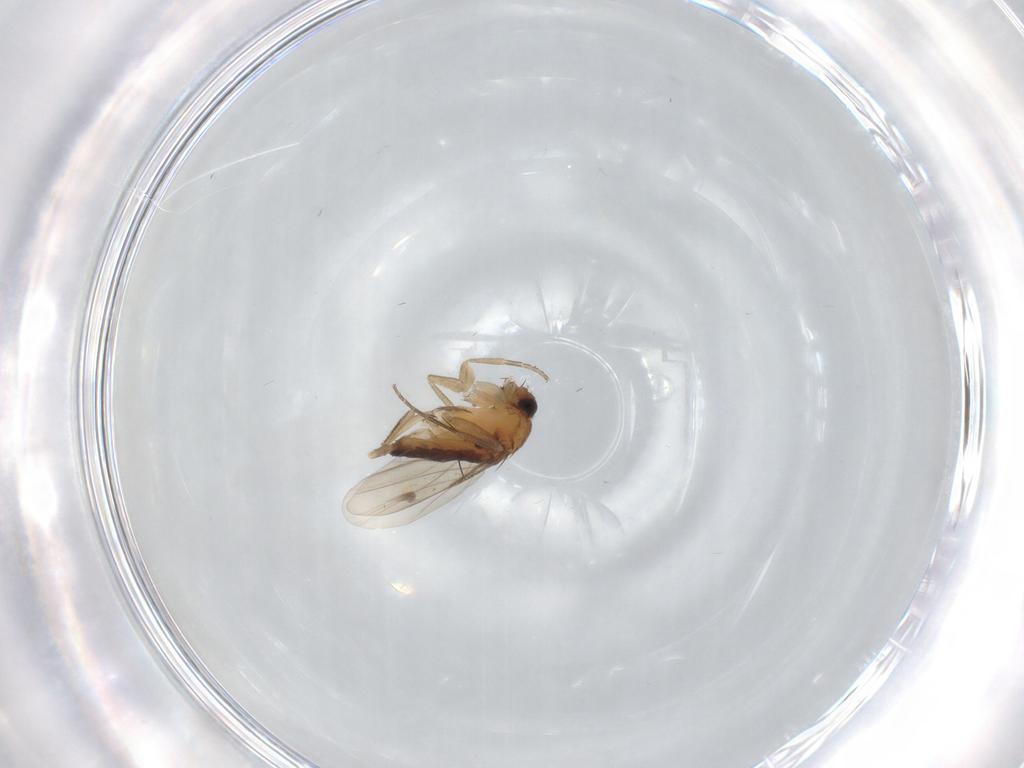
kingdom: Animalia
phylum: Arthropoda
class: Insecta
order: Diptera
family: Phoridae
